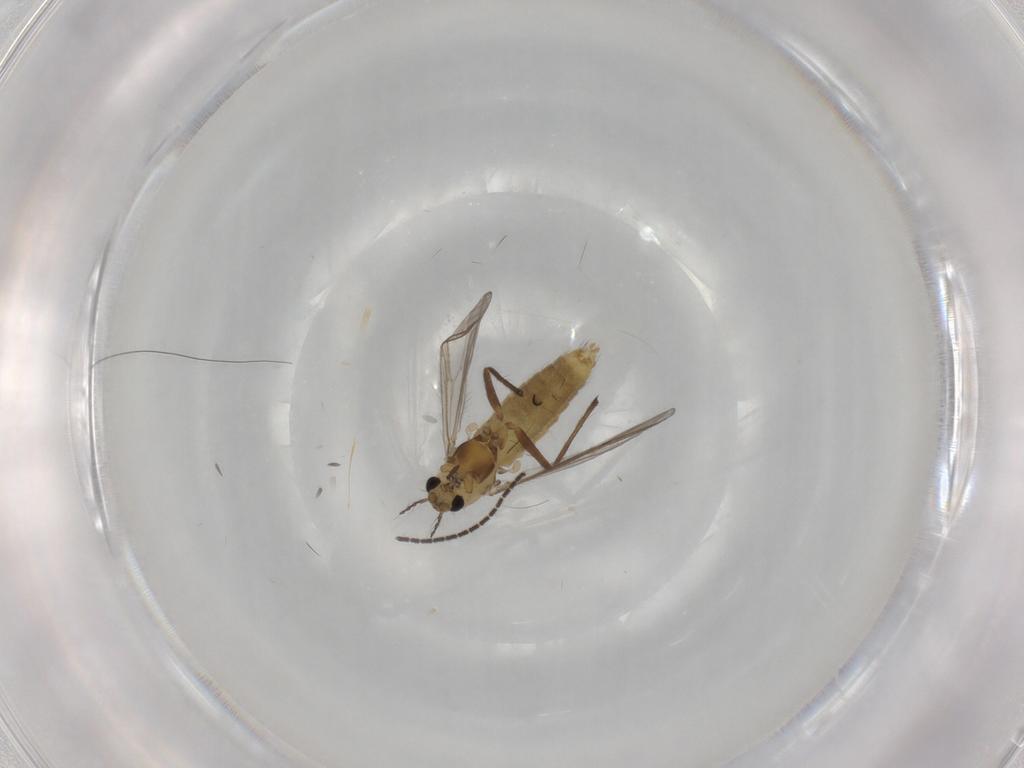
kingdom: Animalia
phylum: Arthropoda
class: Insecta
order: Diptera
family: Chironomidae
